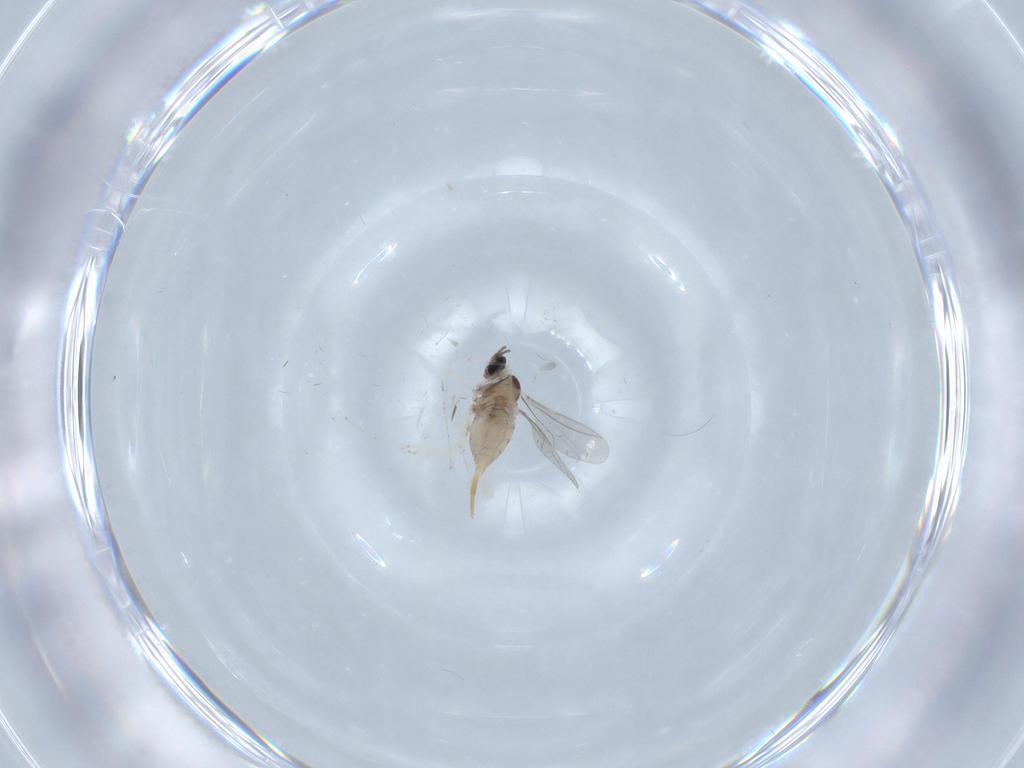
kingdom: Animalia
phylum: Arthropoda
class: Insecta
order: Diptera
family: Cecidomyiidae
